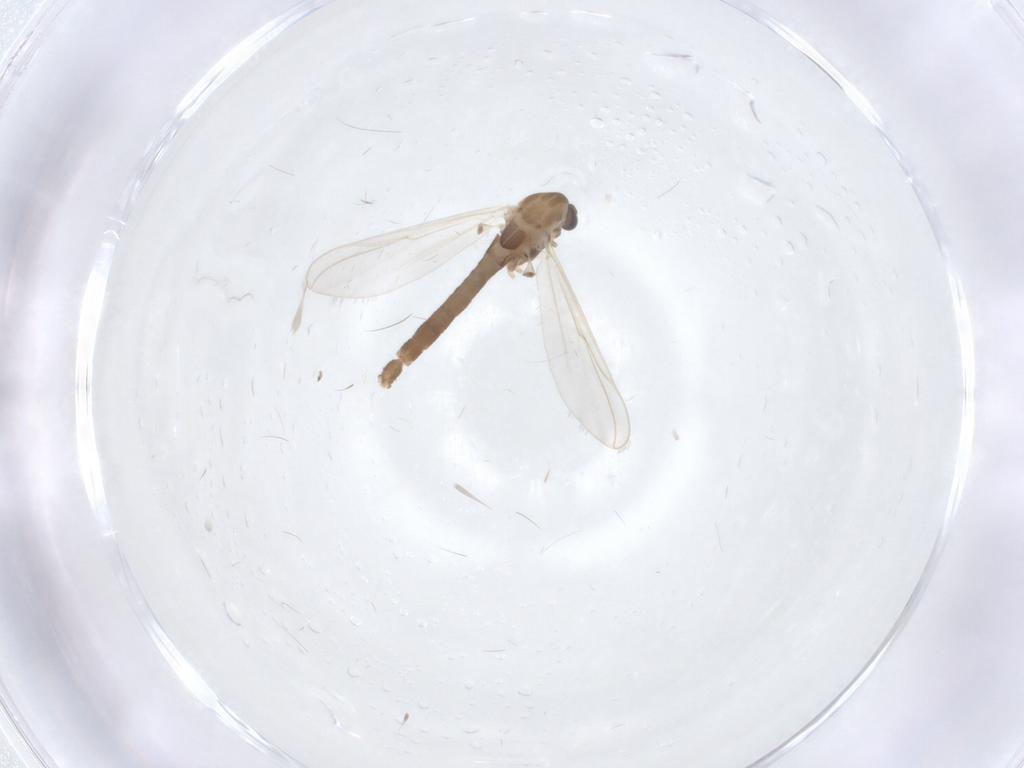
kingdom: Animalia
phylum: Arthropoda
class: Insecta
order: Diptera
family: Chironomidae
